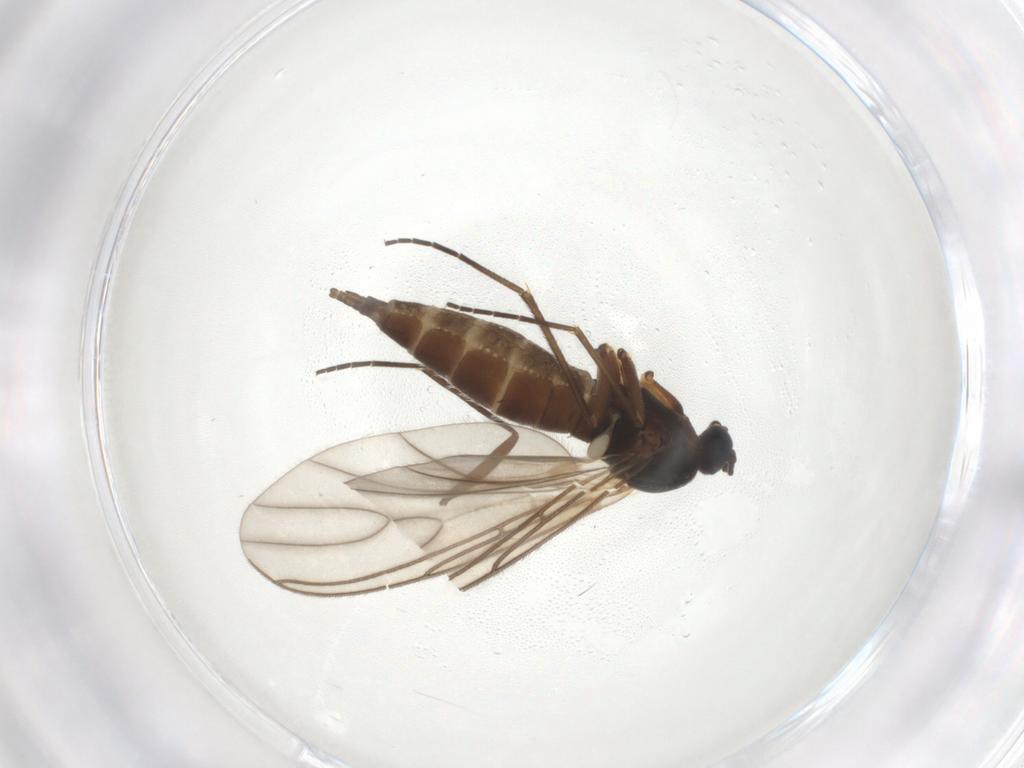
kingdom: Animalia
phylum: Arthropoda
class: Insecta
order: Diptera
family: Sciaridae
